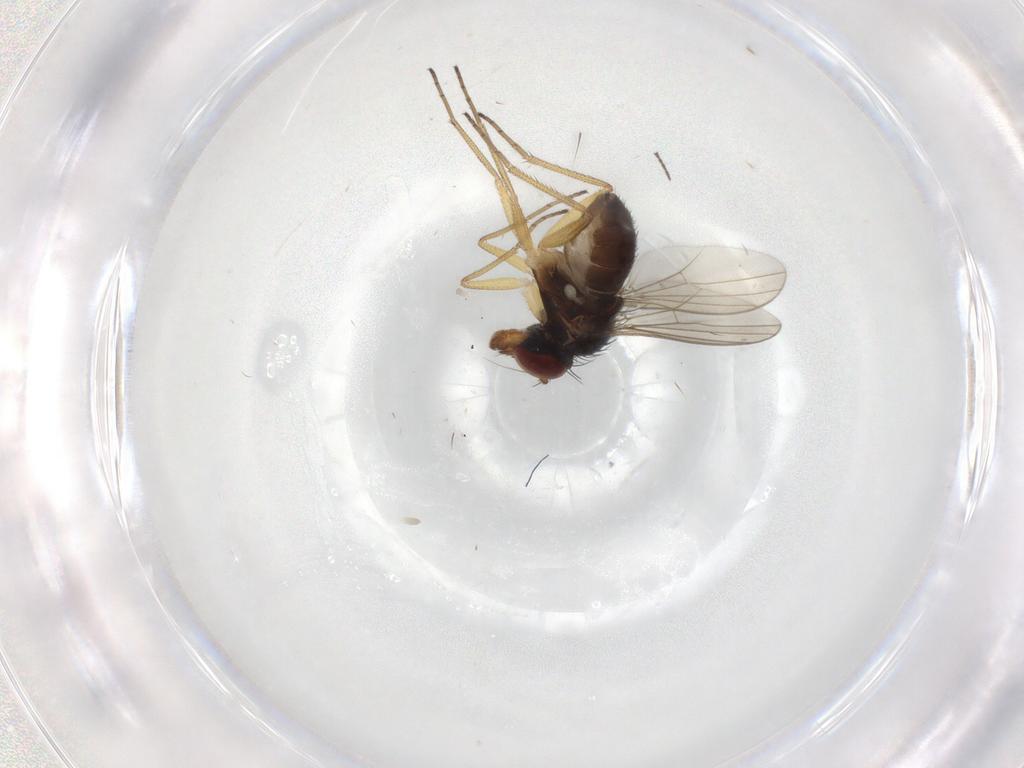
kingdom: Animalia
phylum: Arthropoda
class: Insecta
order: Diptera
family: Dolichopodidae
